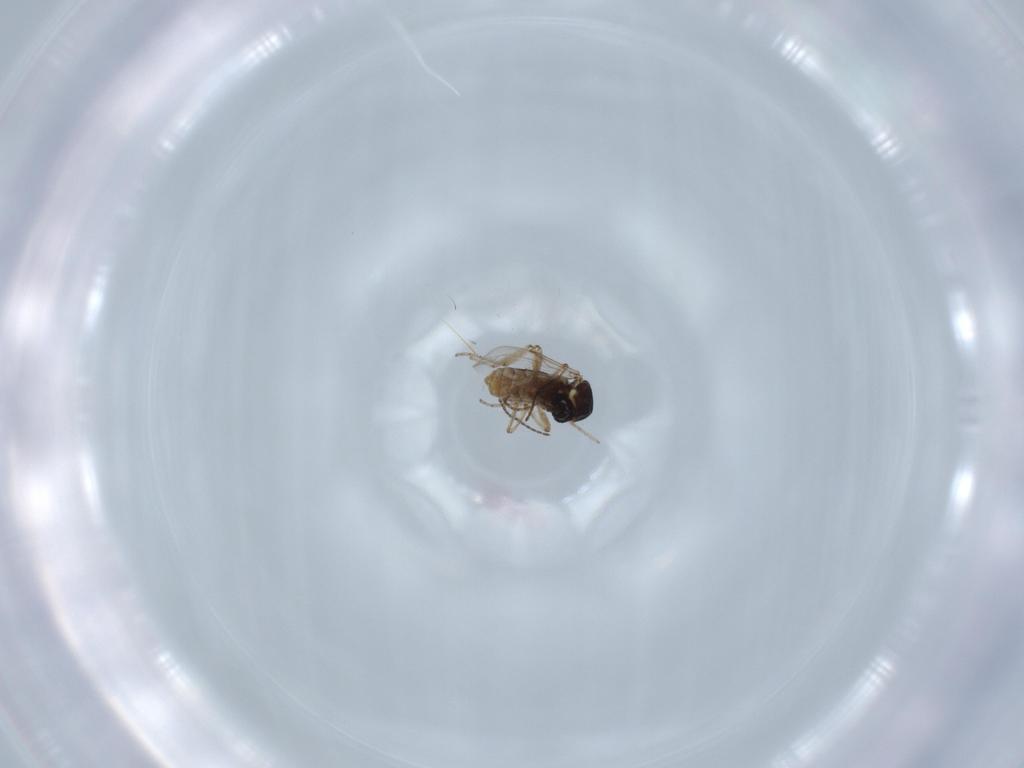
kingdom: Animalia
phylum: Arthropoda
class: Insecta
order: Diptera
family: Ceratopogonidae
